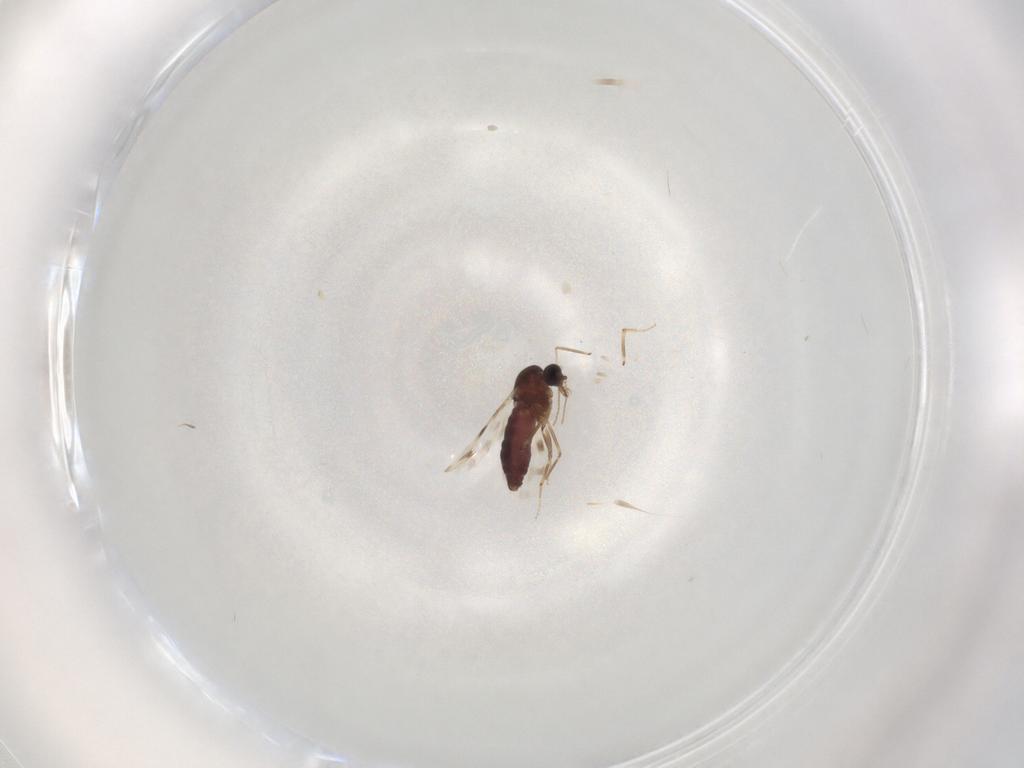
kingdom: Animalia
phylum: Arthropoda
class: Insecta
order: Diptera
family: Ceratopogonidae
